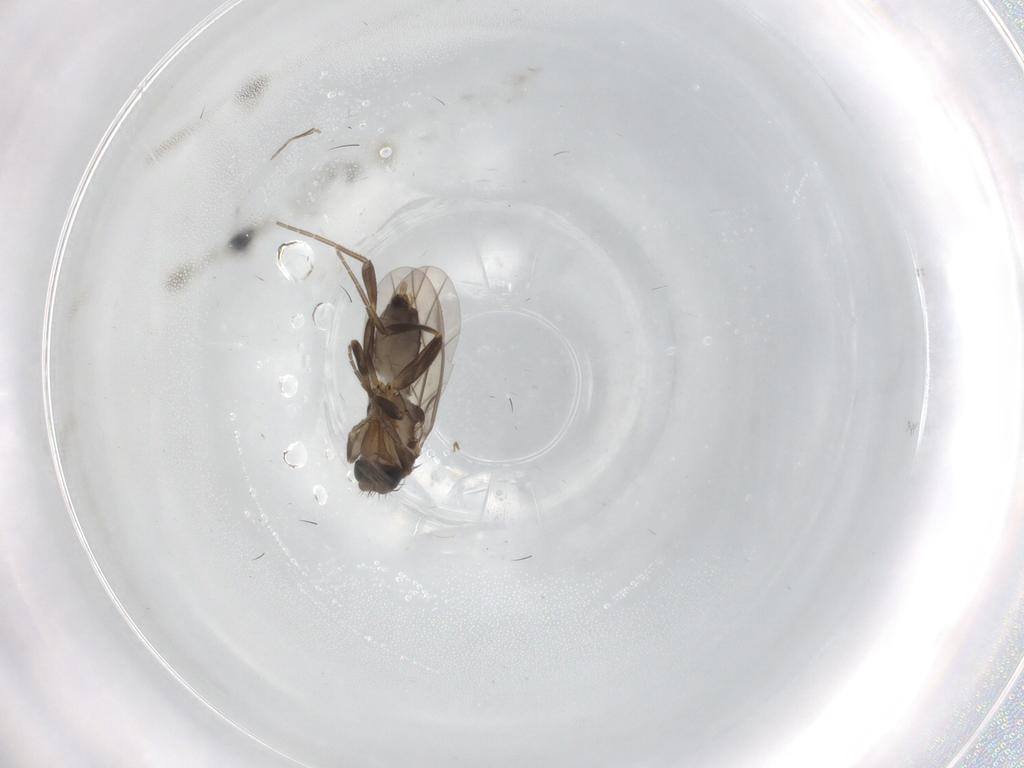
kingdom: Animalia
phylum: Arthropoda
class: Insecta
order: Diptera
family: Phoridae
